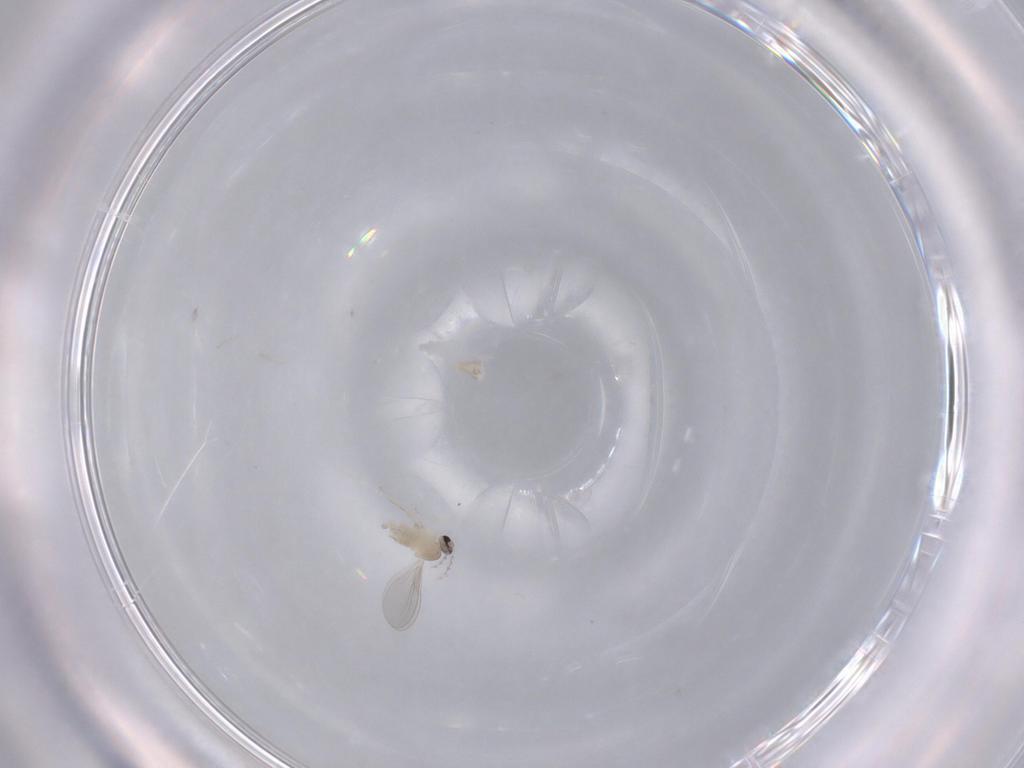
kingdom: Animalia
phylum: Arthropoda
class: Insecta
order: Diptera
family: Cecidomyiidae
